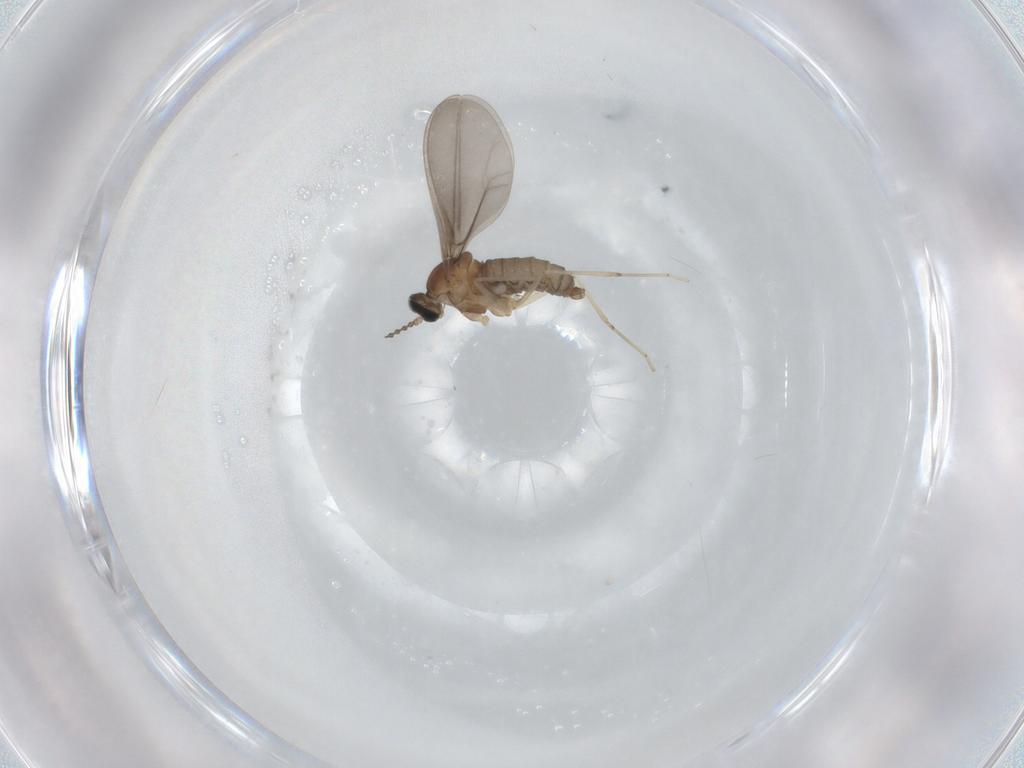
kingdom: Animalia
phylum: Arthropoda
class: Insecta
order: Diptera
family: Cecidomyiidae
